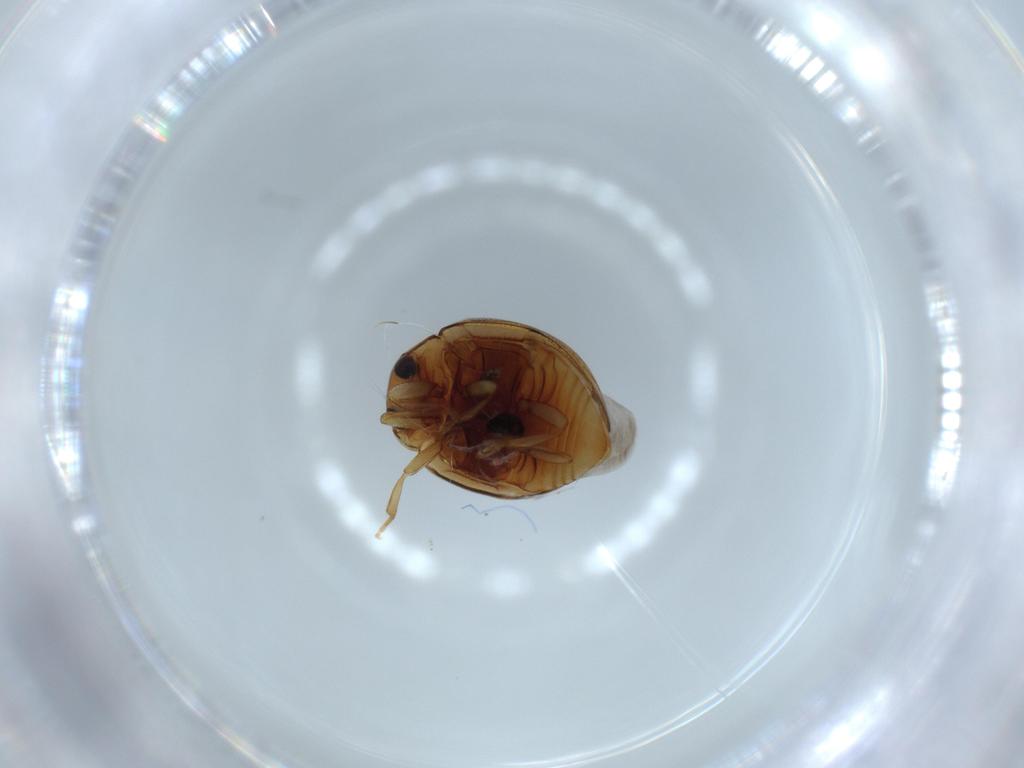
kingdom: Animalia
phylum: Arthropoda
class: Insecta
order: Coleoptera
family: Coccinellidae
